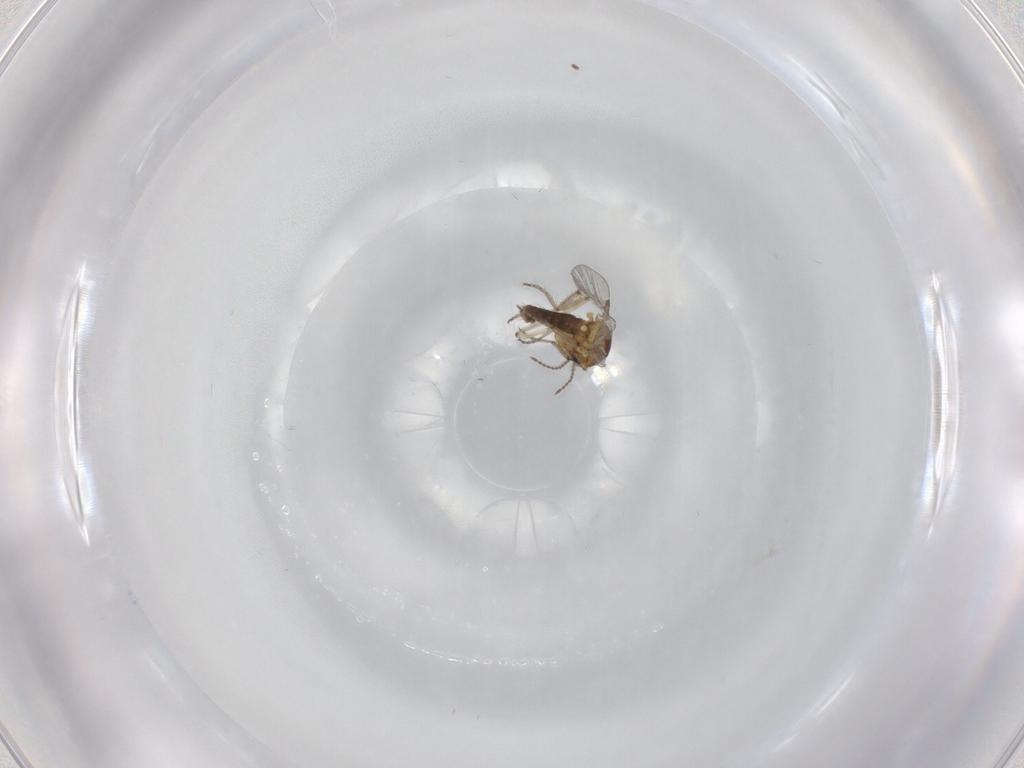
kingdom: Animalia
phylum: Arthropoda
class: Insecta
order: Diptera
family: Ceratopogonidae
